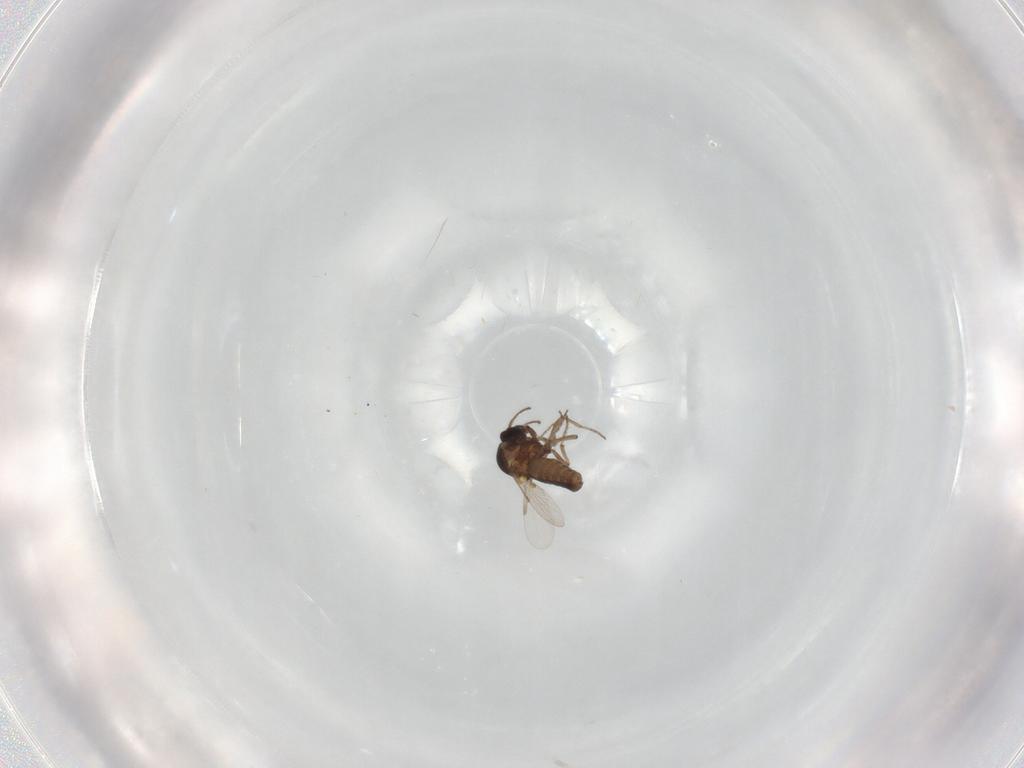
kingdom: Animalia
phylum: Arthropoda
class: Insecta
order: Diptera
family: Ceratopogonidae
